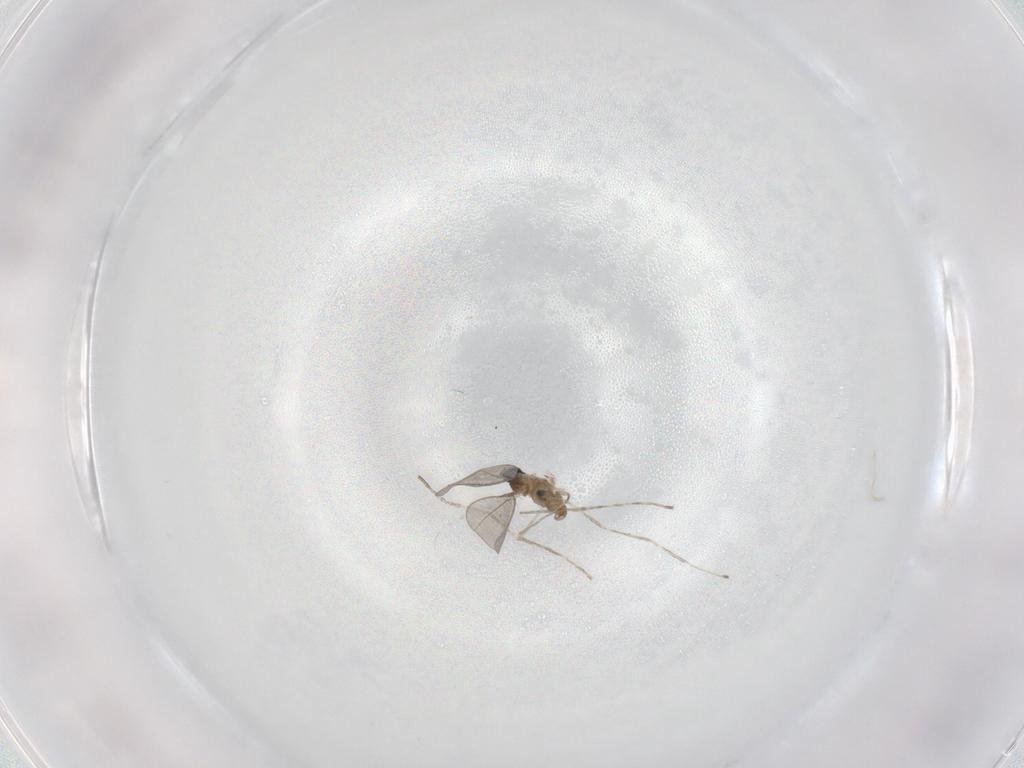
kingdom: Animalia
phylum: Arthropoda
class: Insecta
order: Diptera
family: Cecidomyiidae
